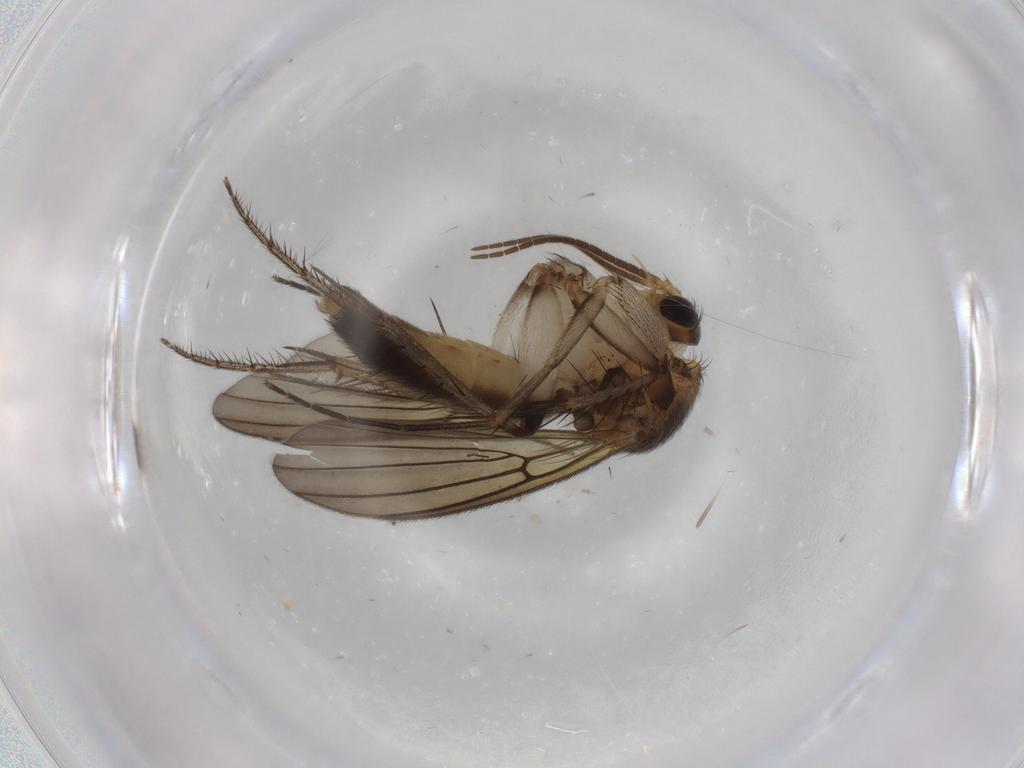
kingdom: Animalia
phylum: Arthropoda
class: Insecta
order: Diptera
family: Mycetophilidae
